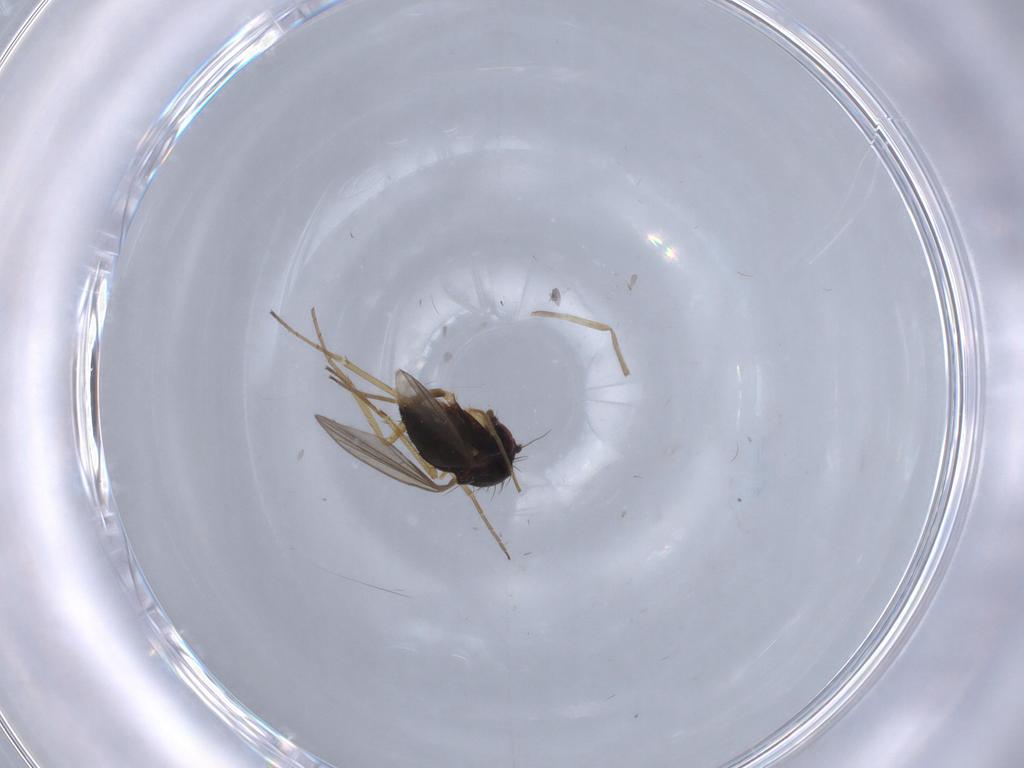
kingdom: Animalia
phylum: Arthropoda
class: Insecta
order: Diptera
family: Dolichopodidae
